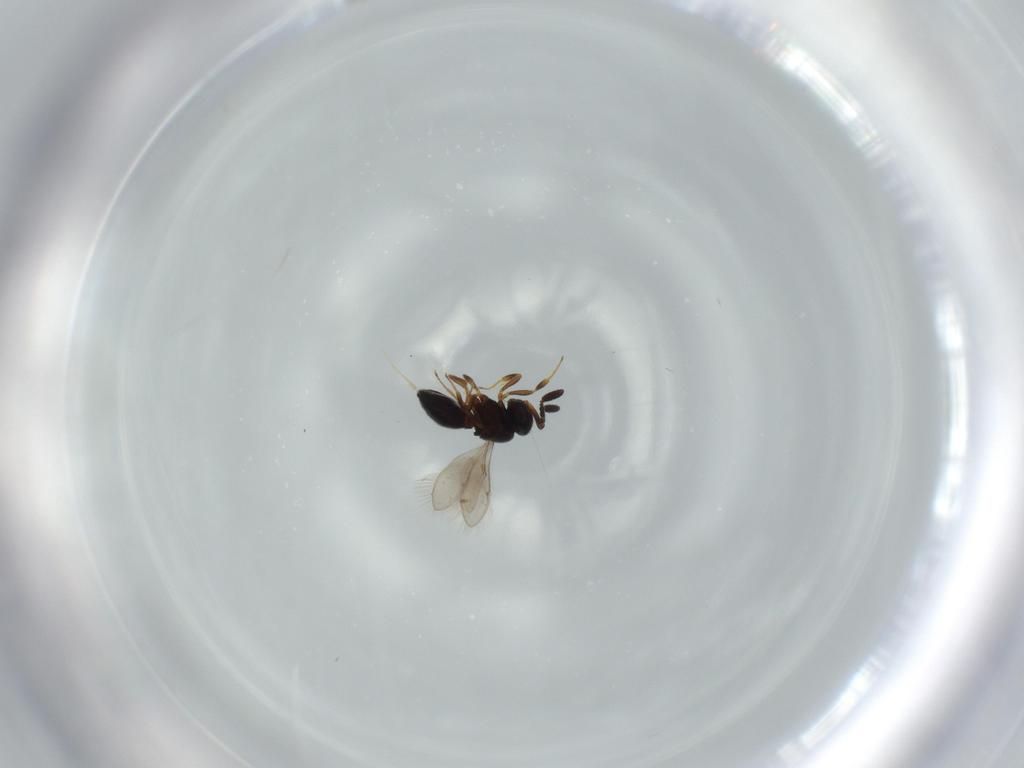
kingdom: Animalia
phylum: Arthropoda
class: Insecta
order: Hymenoptera
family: Scelionidae
